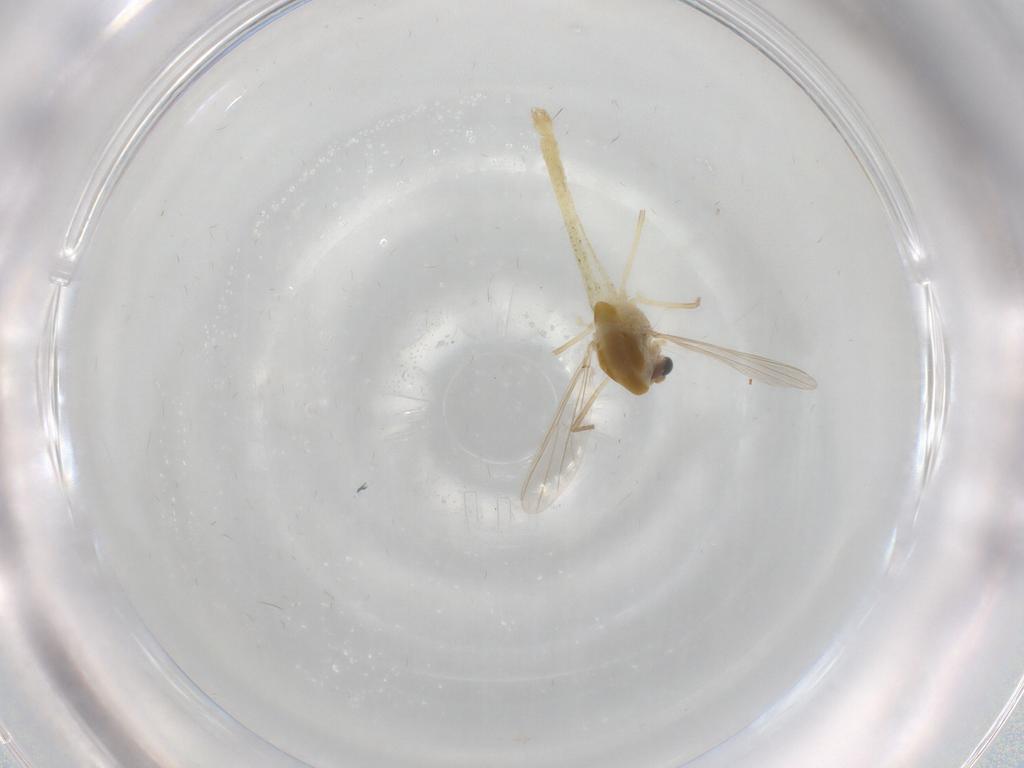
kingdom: Animalia
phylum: Arthropoda
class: Insecta
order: Diptera
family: Chironomidae
